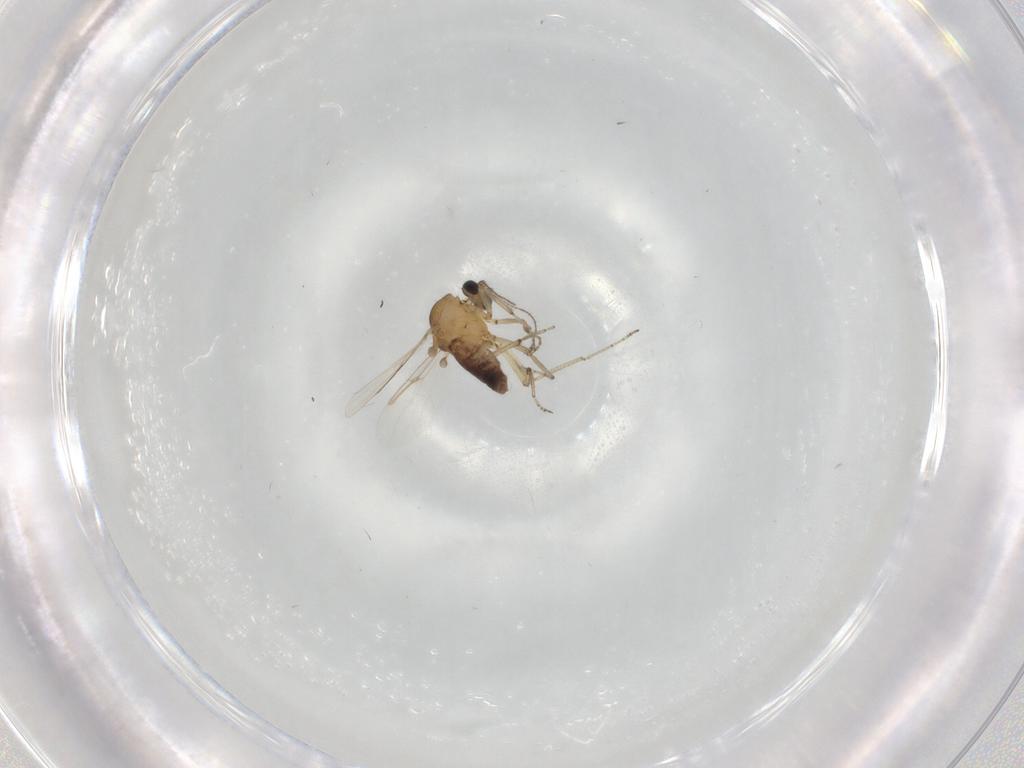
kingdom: Animalia
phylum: Arthropoda
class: Insecta
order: Diptera
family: Ceratopogonidae
